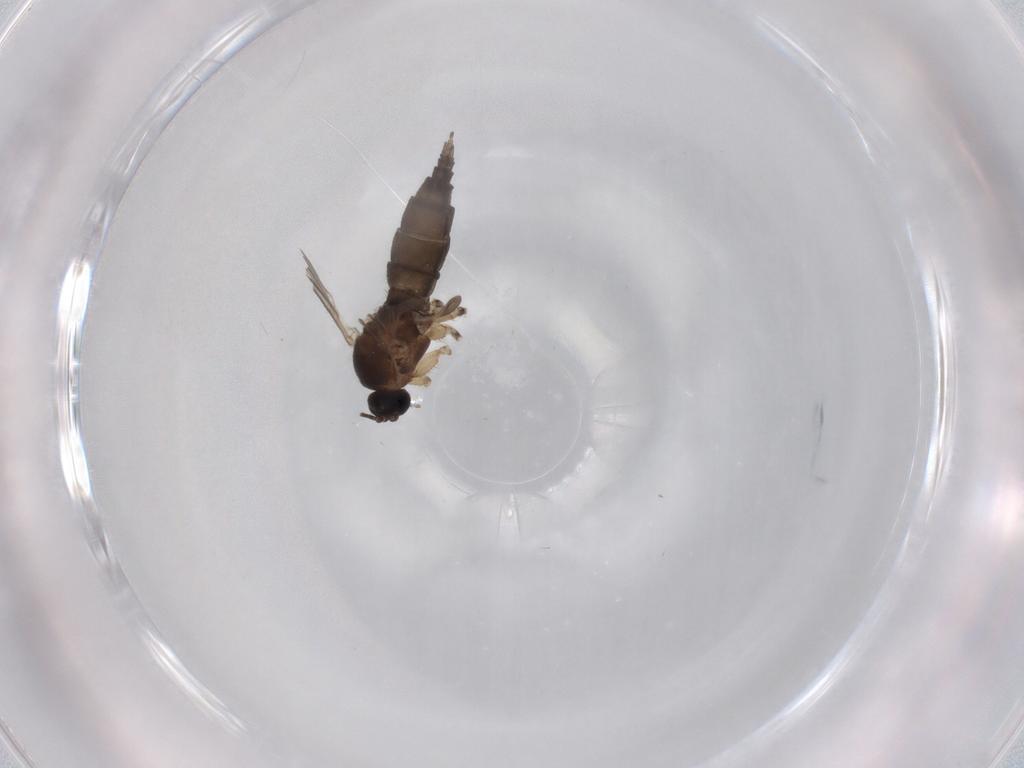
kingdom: Animalia
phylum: Arthropoda
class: Insecta
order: Diptera
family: Sciaridae
